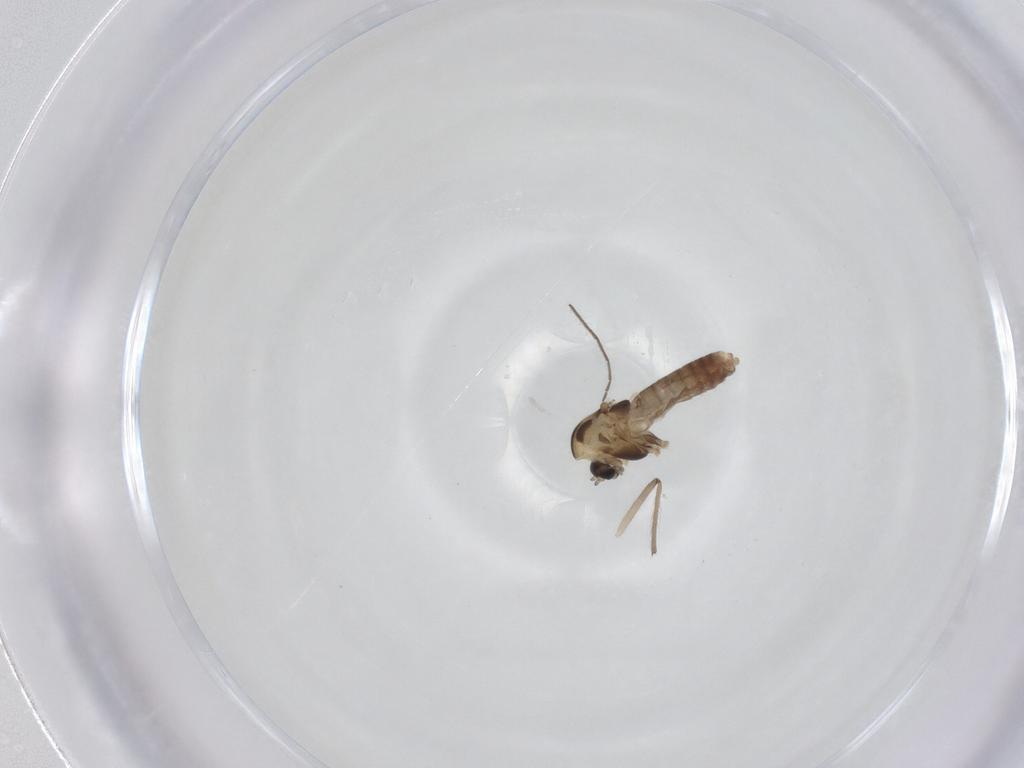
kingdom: Animalia
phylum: Arthropoda
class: Insecta
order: Diptera
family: Chironomidae
